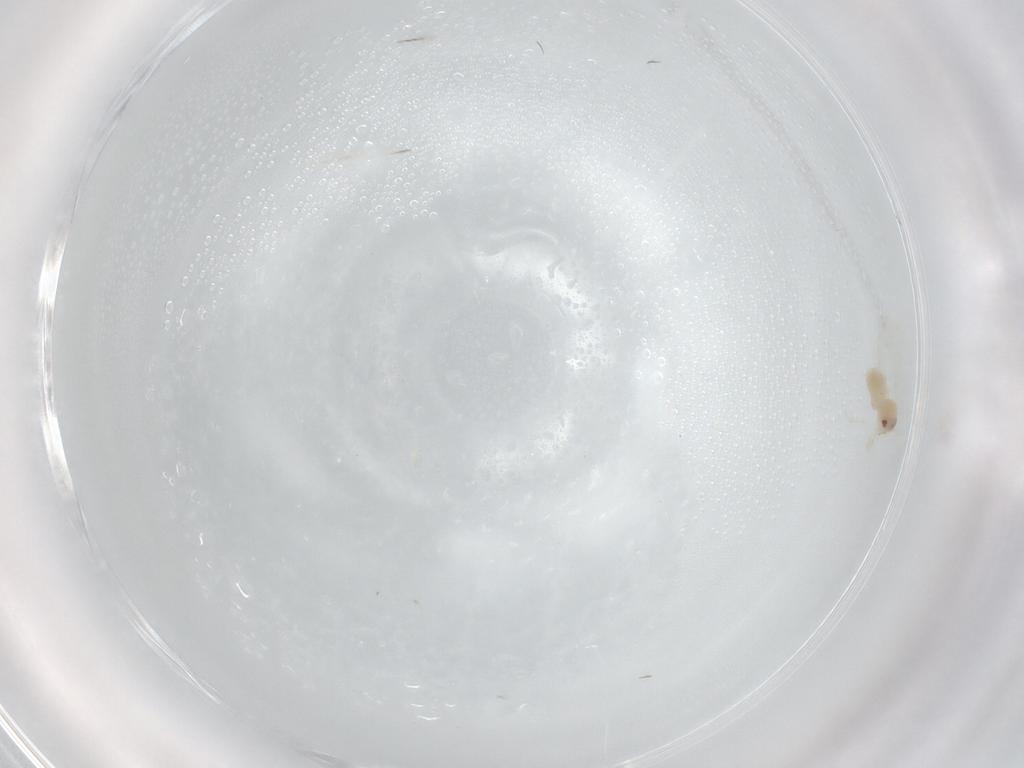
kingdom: Animalia
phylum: Arthropoda
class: Insecta
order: Hemiptera
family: Aleyrodidae
